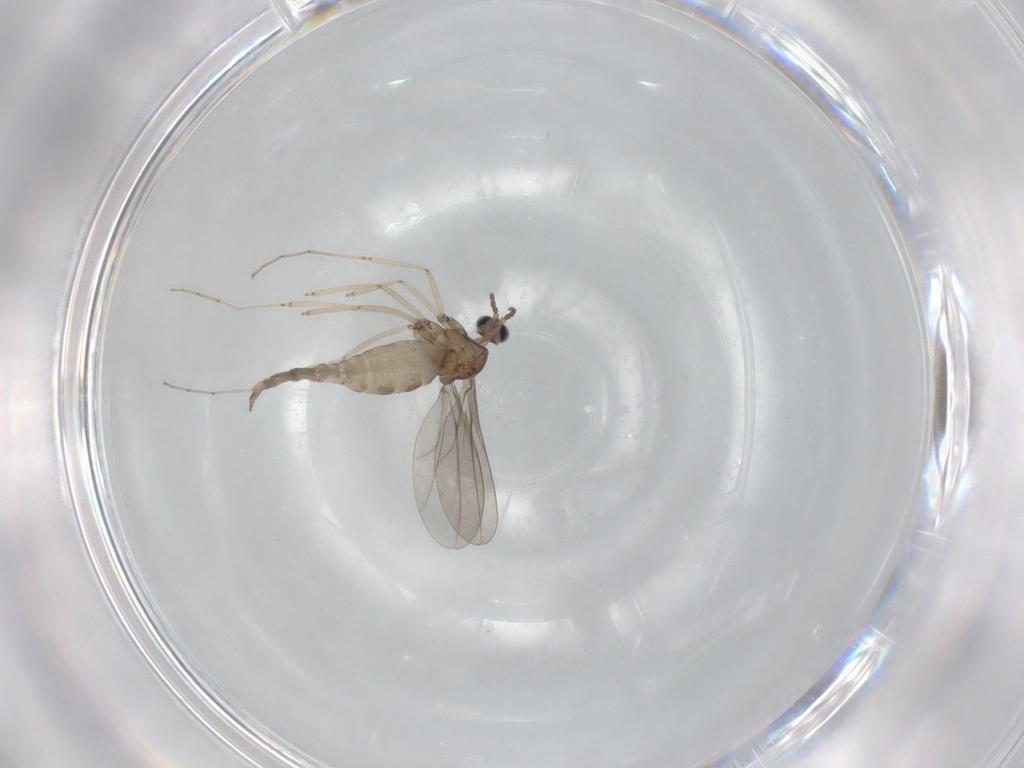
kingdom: Animalia
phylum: Arthropoda
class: Insecta
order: Diptera
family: Cecidomyiidae
